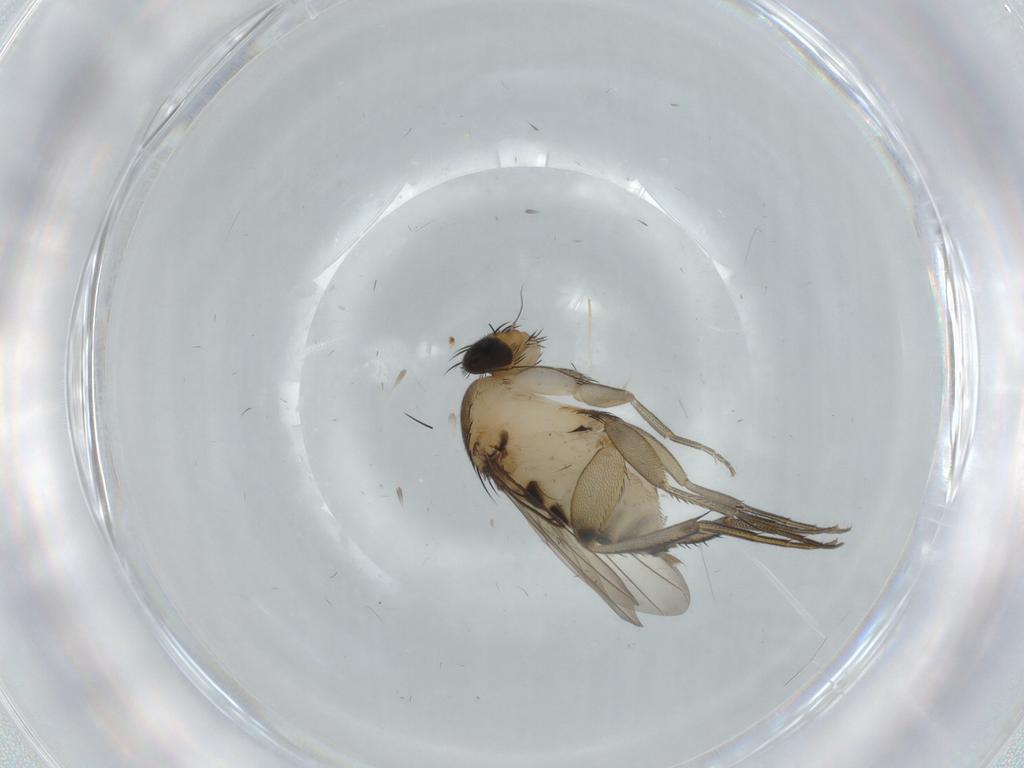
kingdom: Animalia
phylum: Arthropoda
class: Insecta
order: Diptera
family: Phoridae
